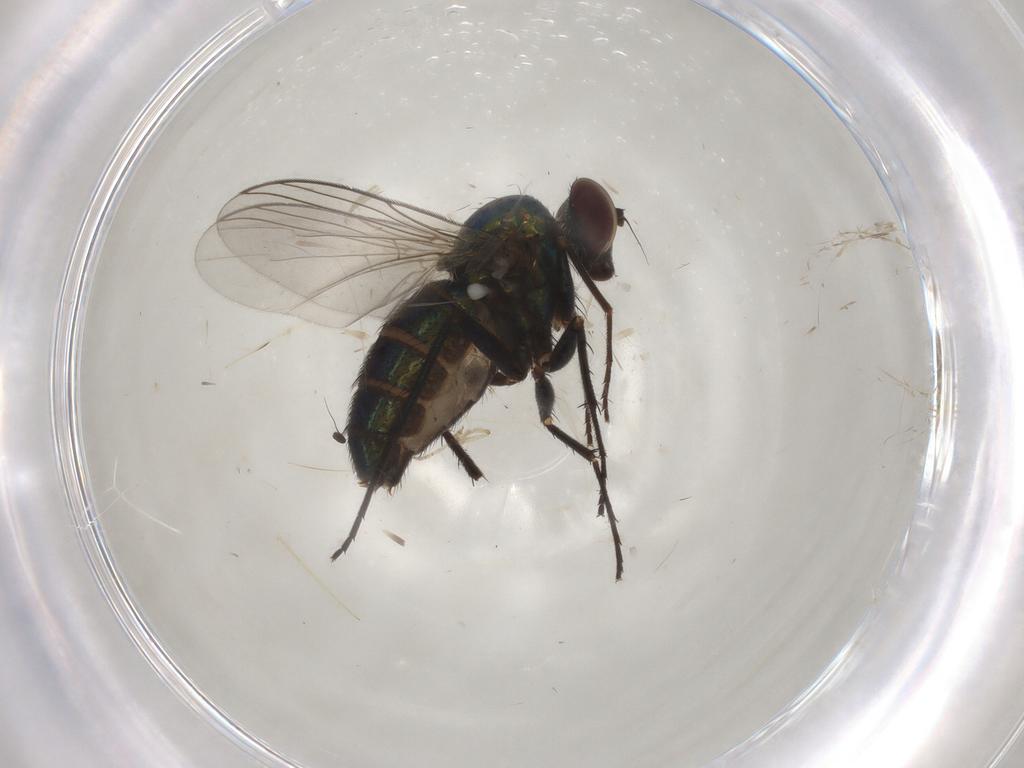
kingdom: Animalia
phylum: Arthropoda
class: Insecta
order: Diptera
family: Dolichopodidae
